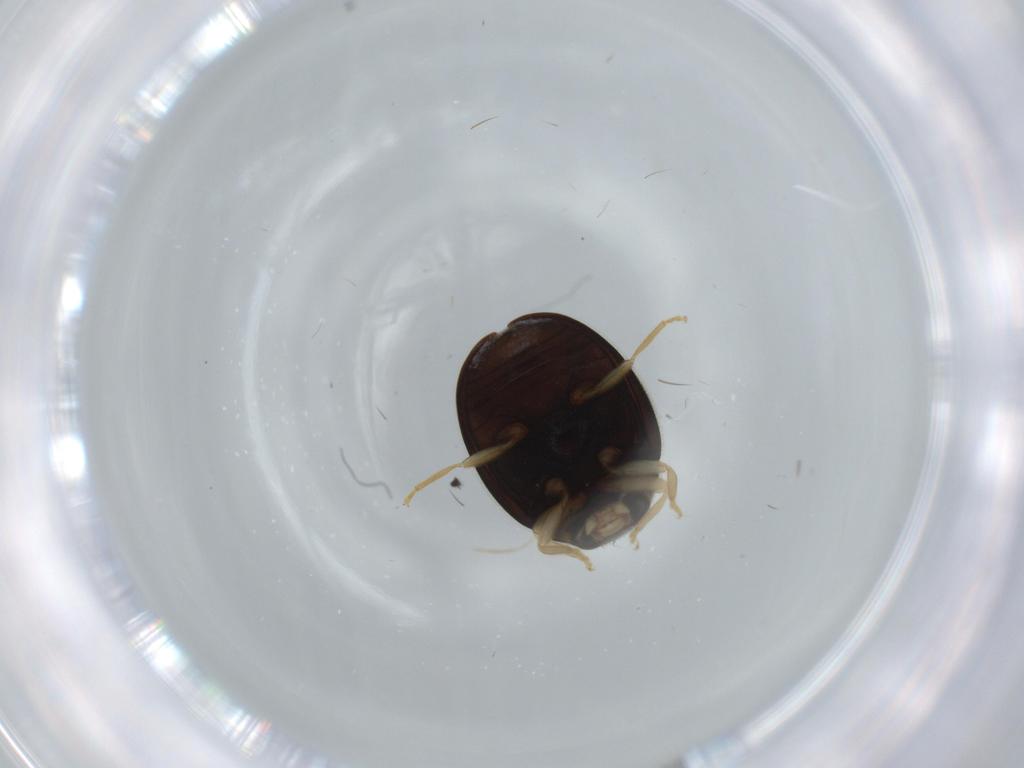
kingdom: Animalia
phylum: Arthropoda
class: Insecta
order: Coleoptera
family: Coccinellidae
